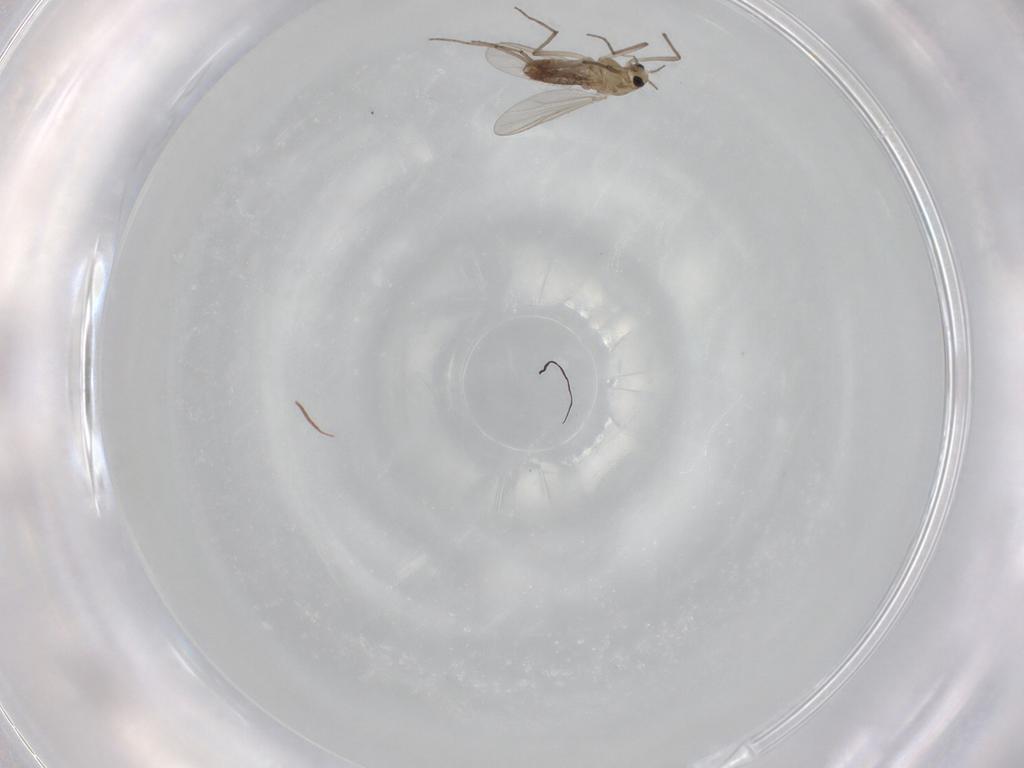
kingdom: Animalia
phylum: Arthropoda
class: Insecta
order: Diptera
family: Chironomidae
